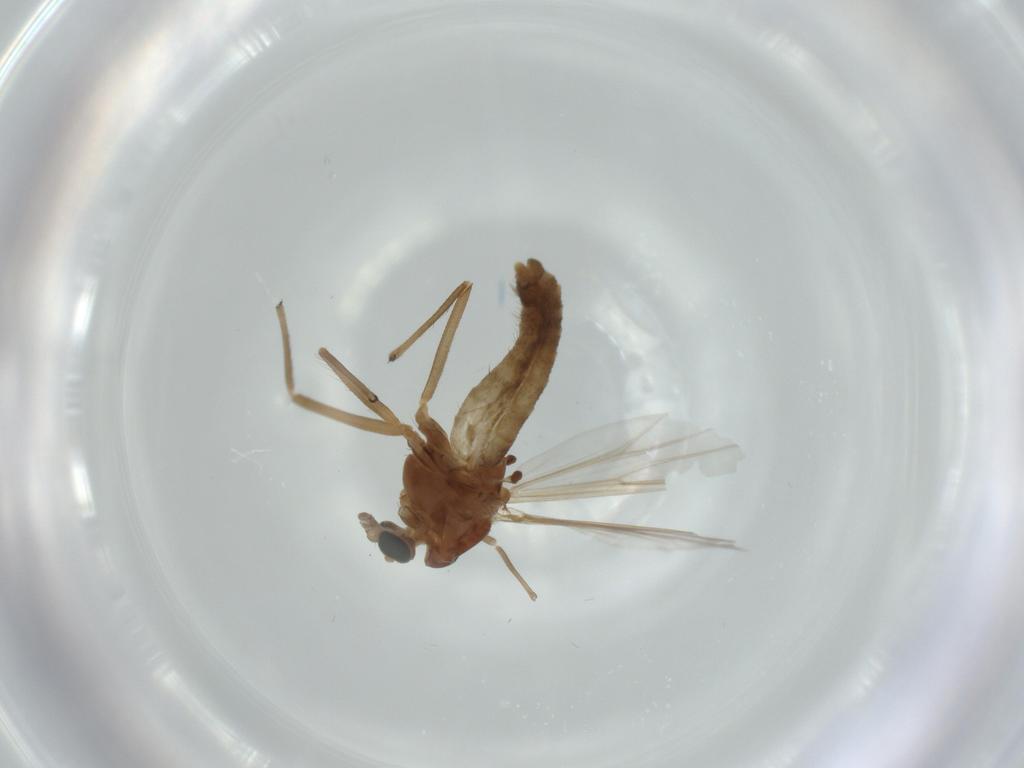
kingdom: Animalia
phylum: Arthropoda
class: Insecta
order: Diptera
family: Chironomidae
